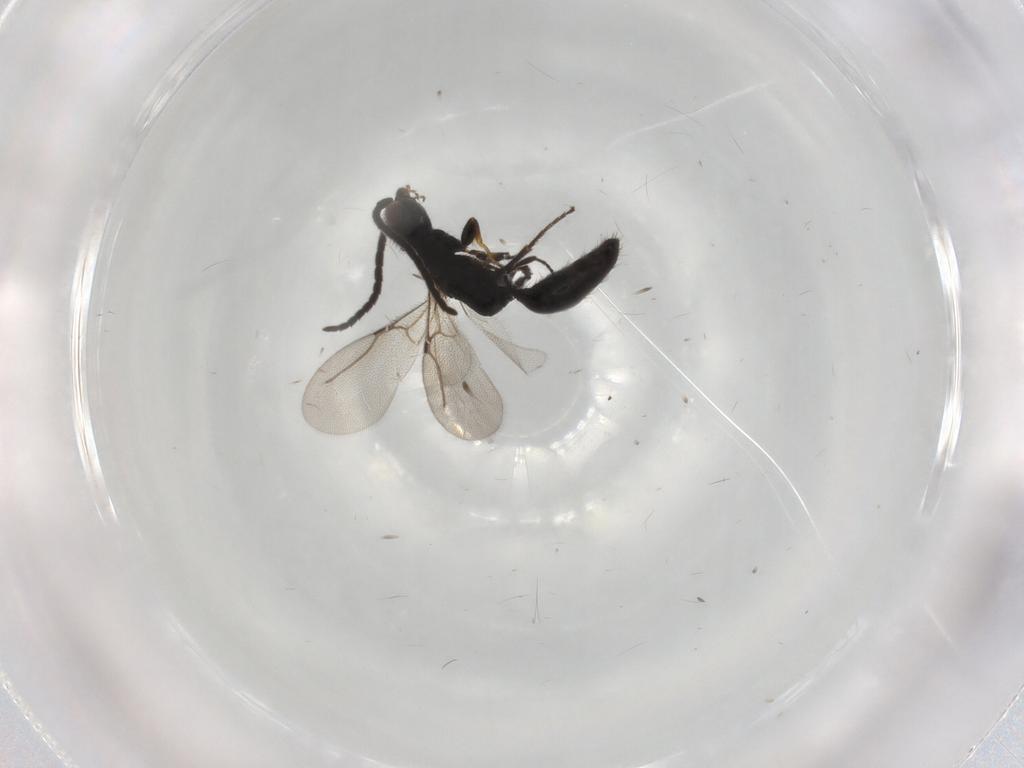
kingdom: Animalia
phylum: Arthropoda
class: Insecta
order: Hymenoptera
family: Bethylidae
